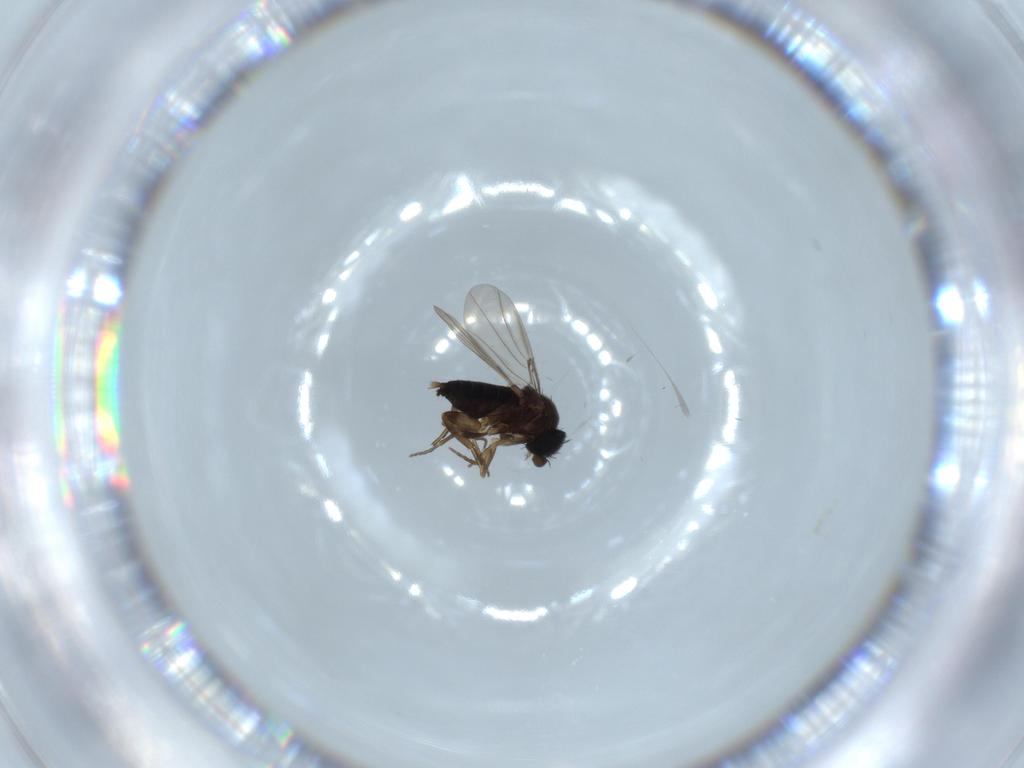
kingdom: Animalia
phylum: Arthropoda
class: Insecta
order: Diptera
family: Phoridae
